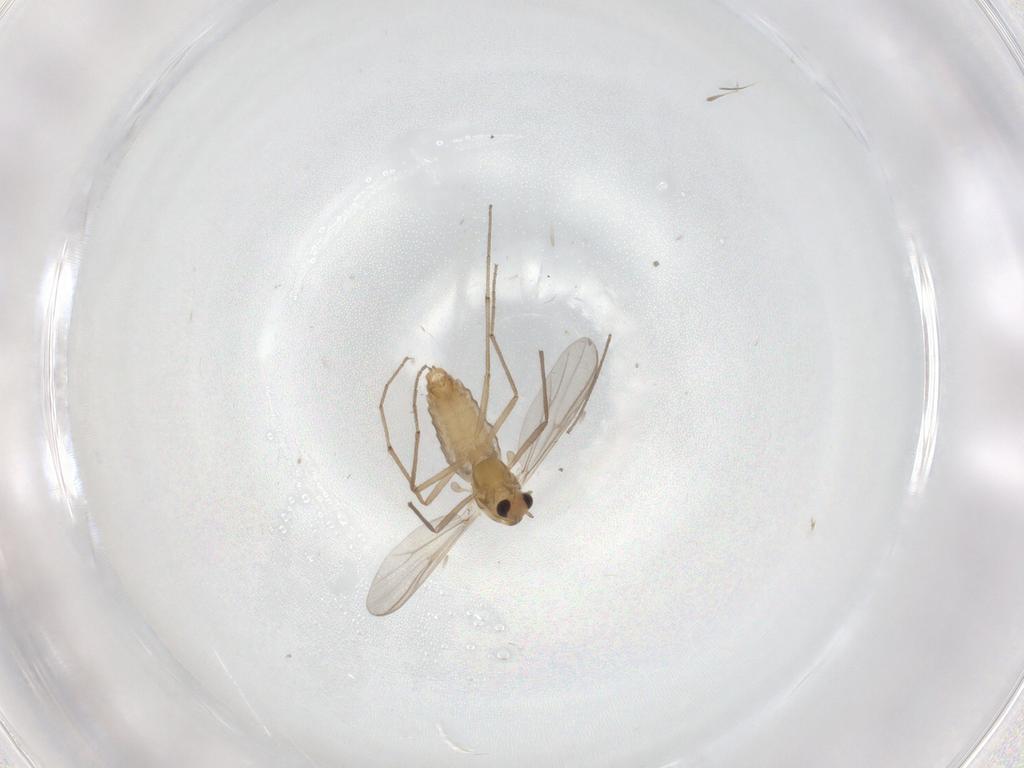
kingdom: Animalia
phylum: Arthropoda
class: Insecta
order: Diptera
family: Chironomidae
